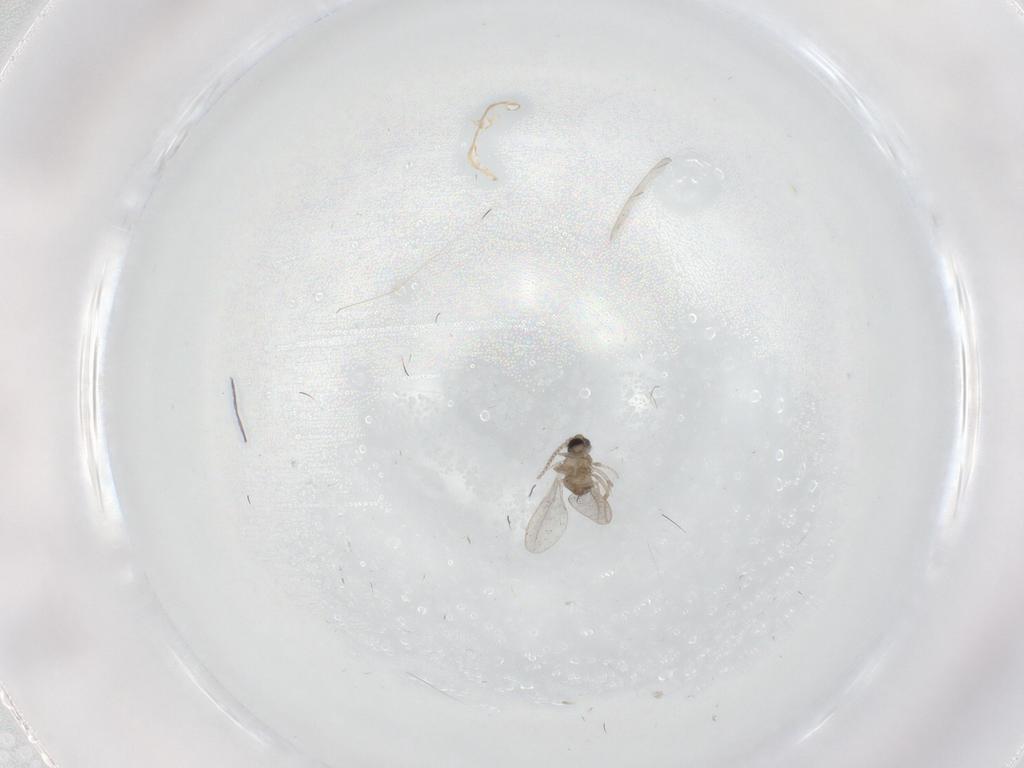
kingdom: Animalia
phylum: Arthropoda
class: Insecta
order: Diptera
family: Cecidomyiidae
